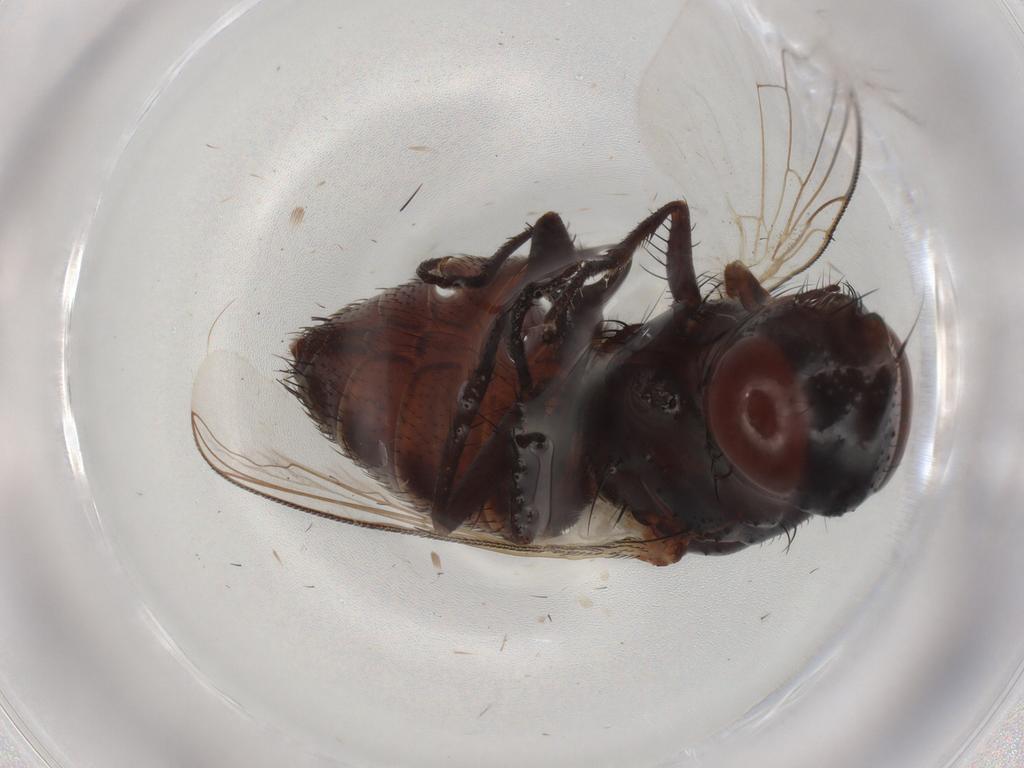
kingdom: Animalia
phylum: Arthropoda
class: Insecta
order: Diptera
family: Sarcophagidae
